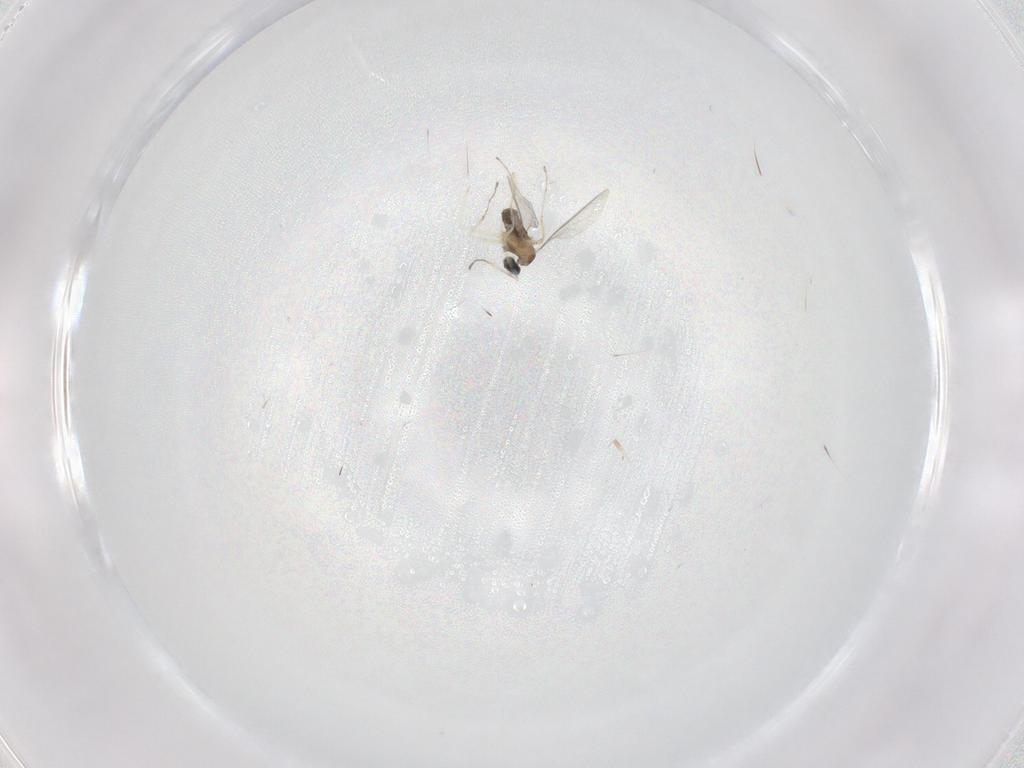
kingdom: Animalia
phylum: Arthropoda
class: Insecta
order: Diptera
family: Cecidomyiidae
